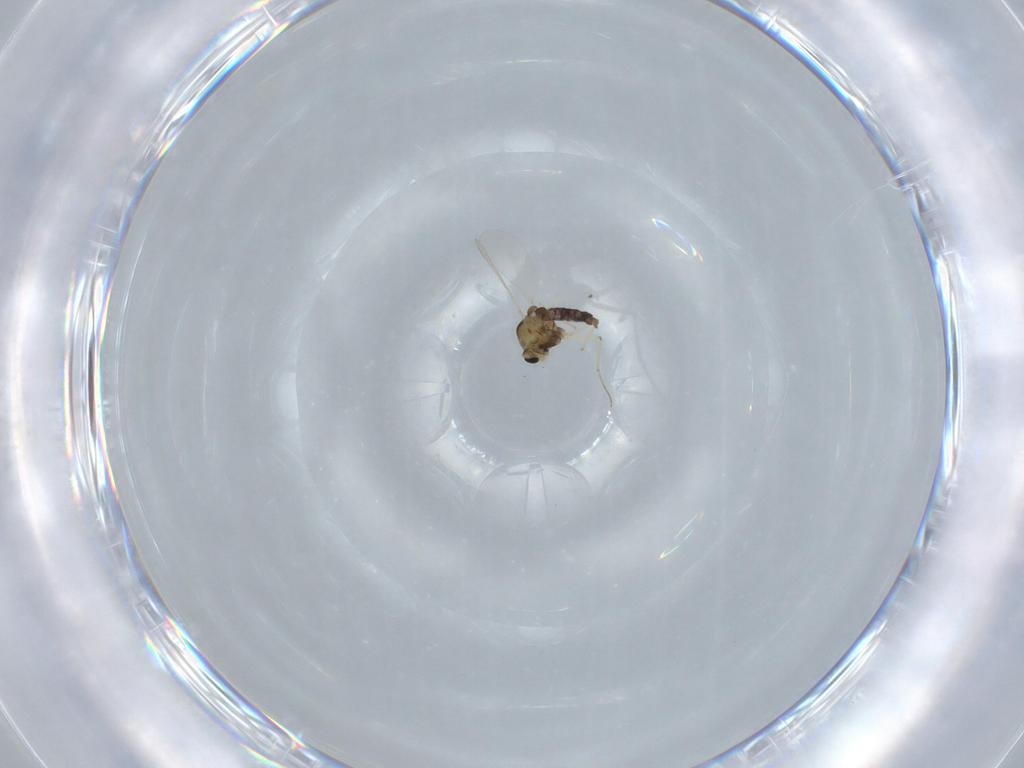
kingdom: Animalia
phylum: Arthropoda
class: Insecta
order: Diptera
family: Chironomidae
